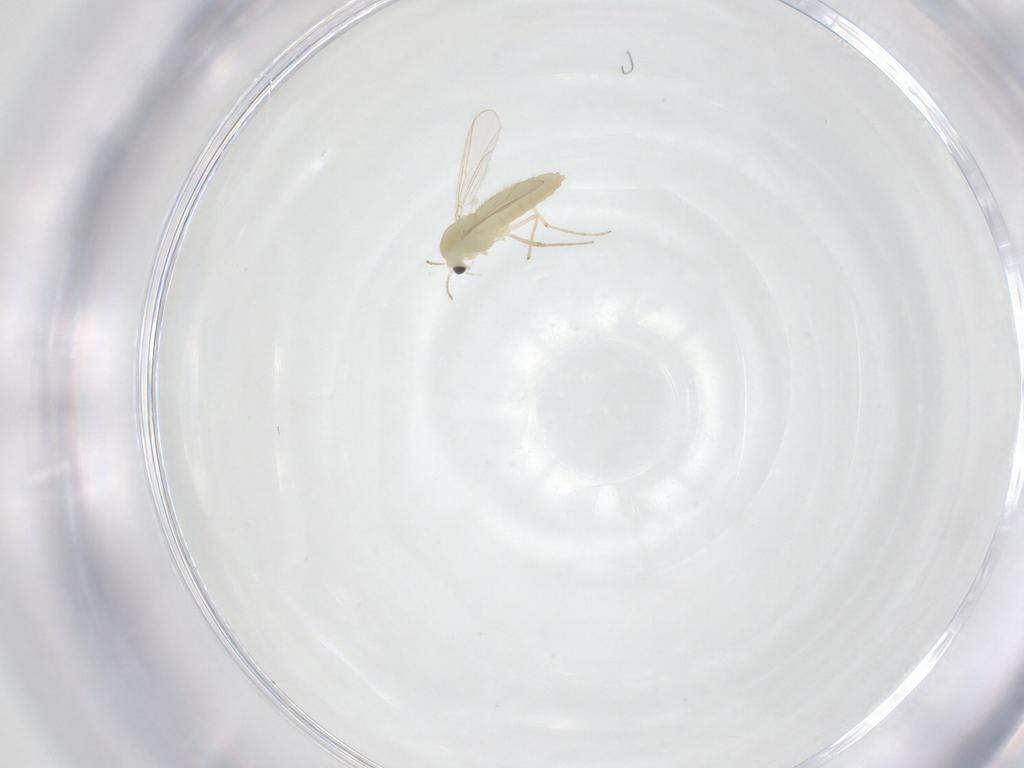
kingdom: Animalia
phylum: Arthropoda
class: Insecta
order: Diptera
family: Chironomidae
